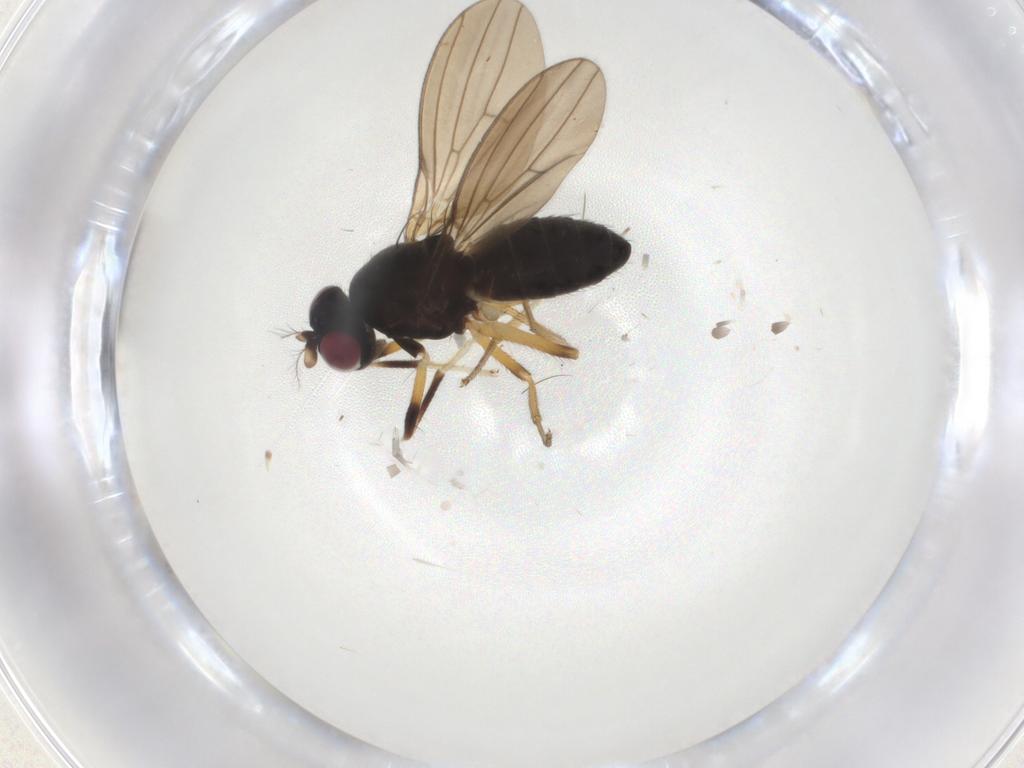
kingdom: Animalia
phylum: Arthropoda
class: Insecta
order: Diptera
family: Lauxaniidae
